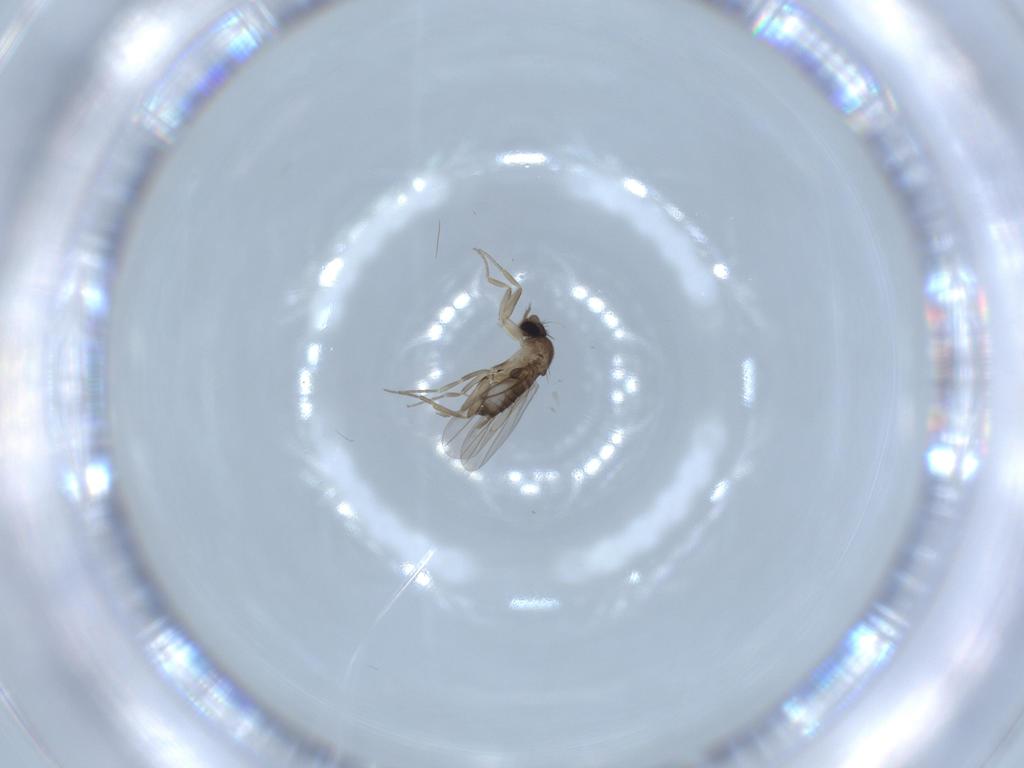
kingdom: Animalia
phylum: Arthropoda
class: Insecta
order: Diptera
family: Phoridae
